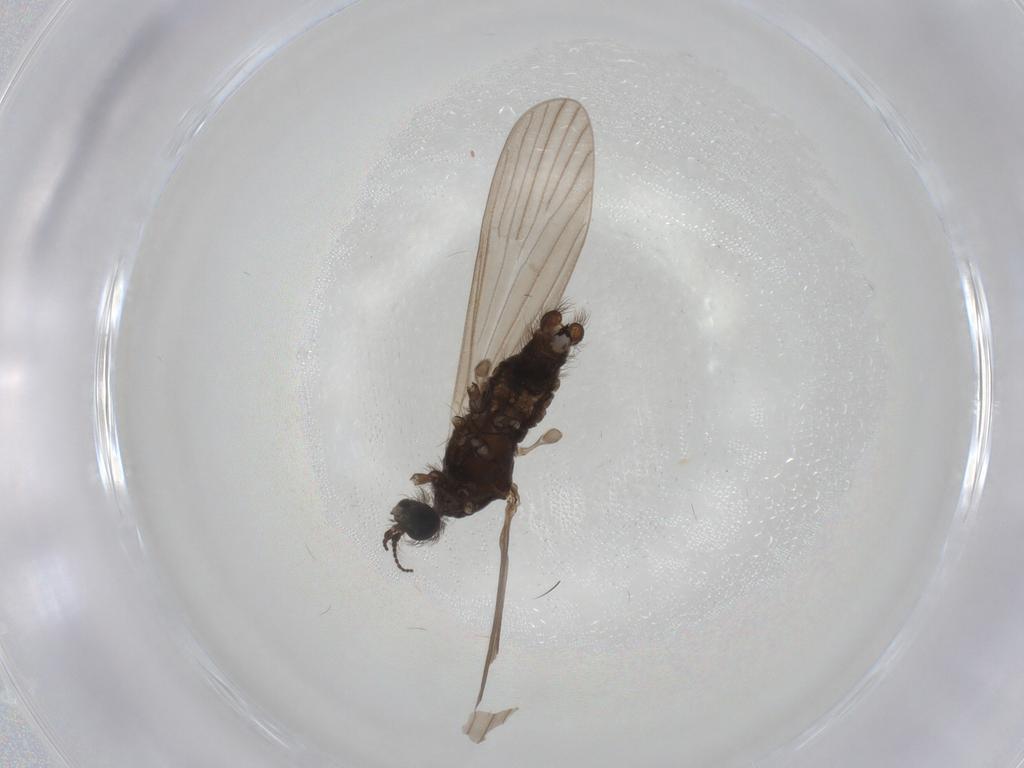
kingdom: Animalia
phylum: Arthropoda
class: Insecta
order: Diptera
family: Limoniidae
